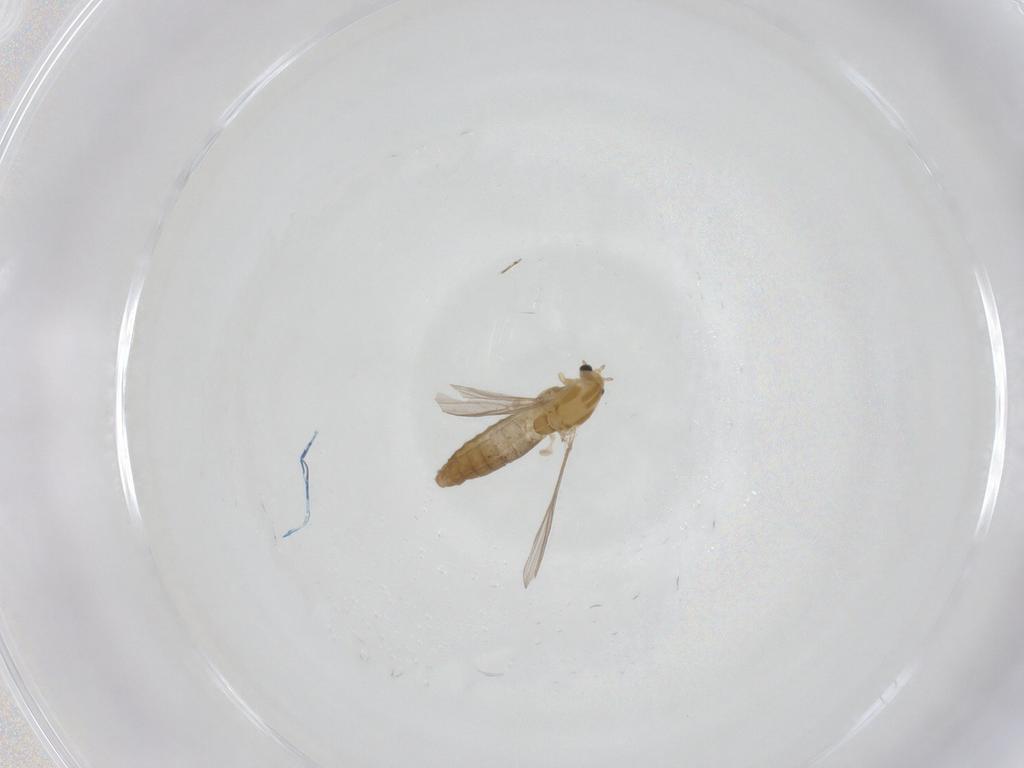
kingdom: Animalia
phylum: Arthropoda
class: Insecta
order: Diptera
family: Chironomidae
